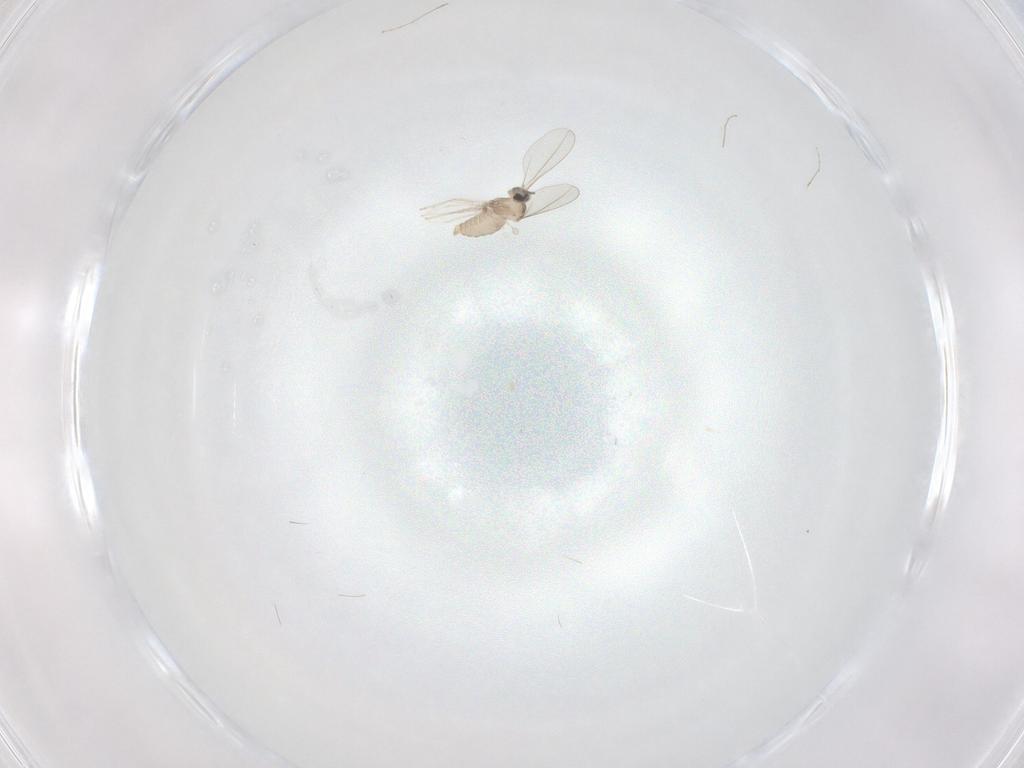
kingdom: Animalia
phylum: Arthropoda
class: Insecta
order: Diptera
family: Cecidomyiidae
